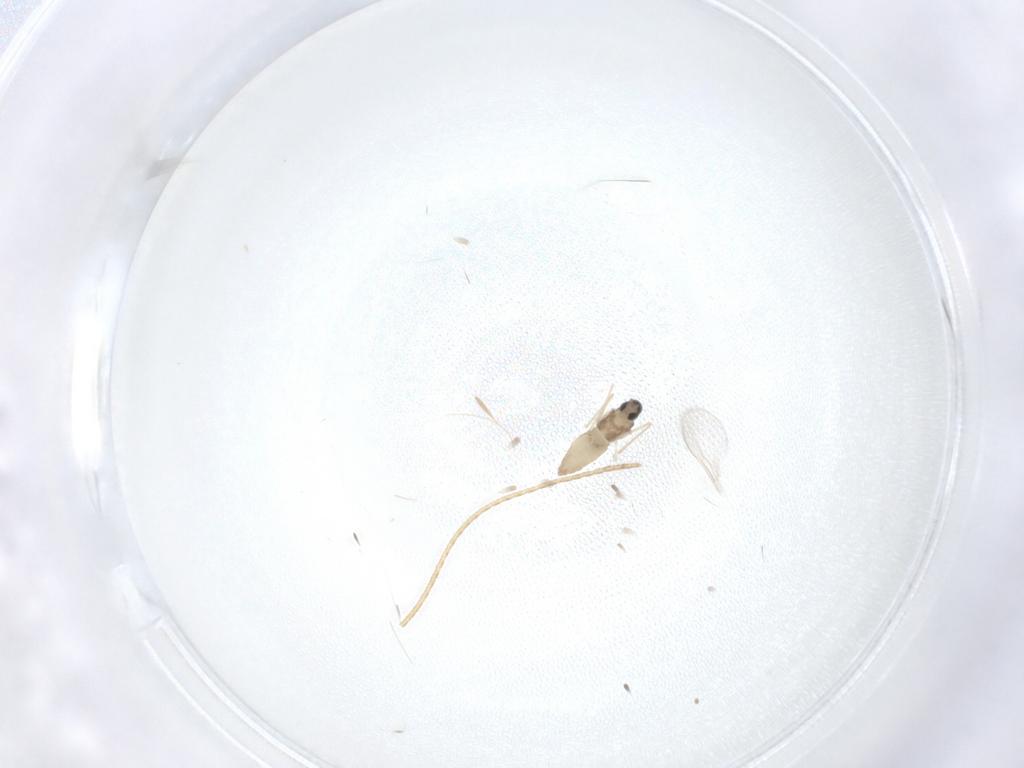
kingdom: Animalia
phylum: Arthropoda
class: Insecta
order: Diptera
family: Cecidomyiidae
